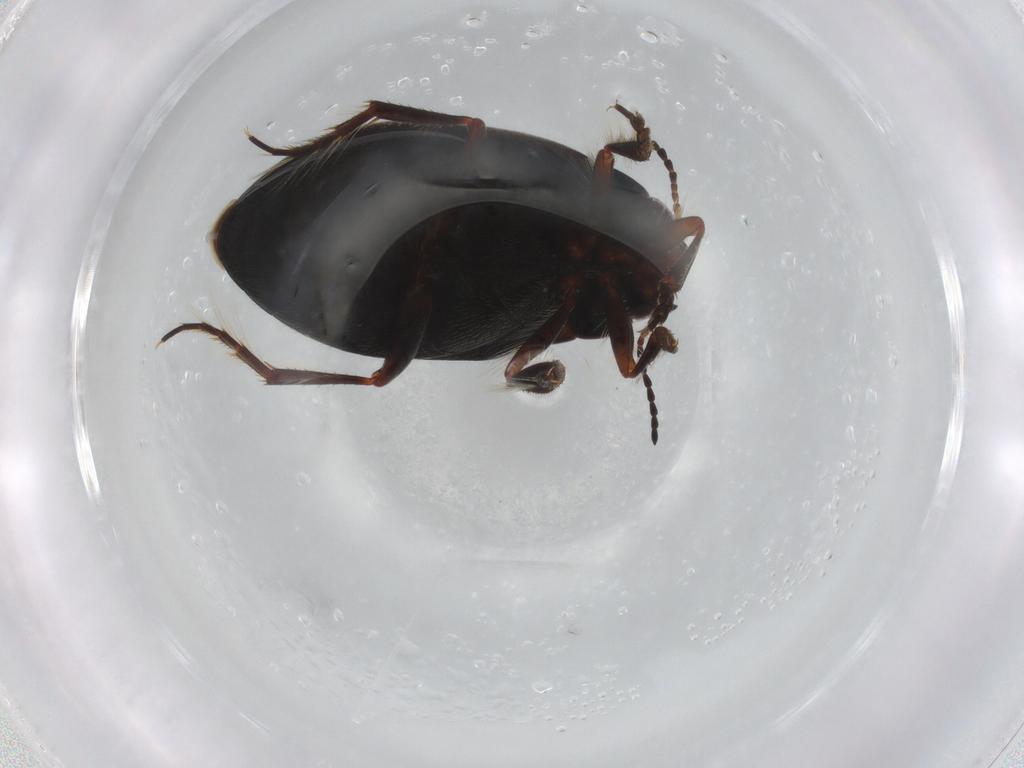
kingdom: Animalia
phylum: Arthropoda
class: Insecta
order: Coleoptera
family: Dytiscidae
